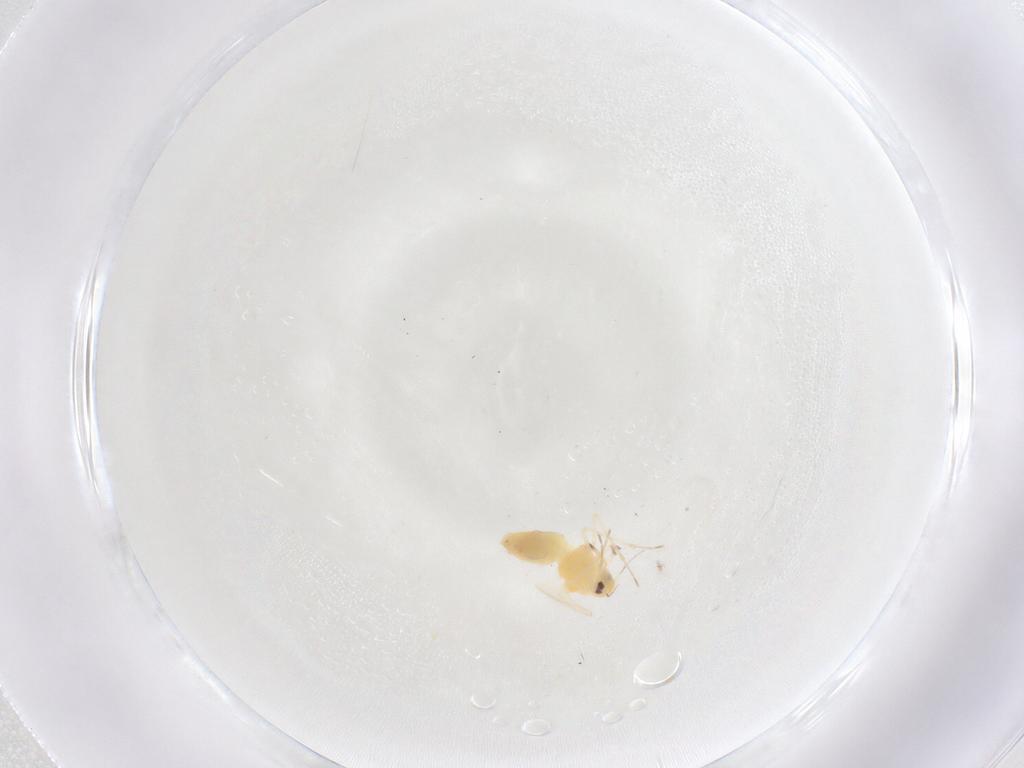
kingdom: Animalia
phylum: Arthropoda
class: Insecta
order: Hemiptera
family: Aleyrodidae
